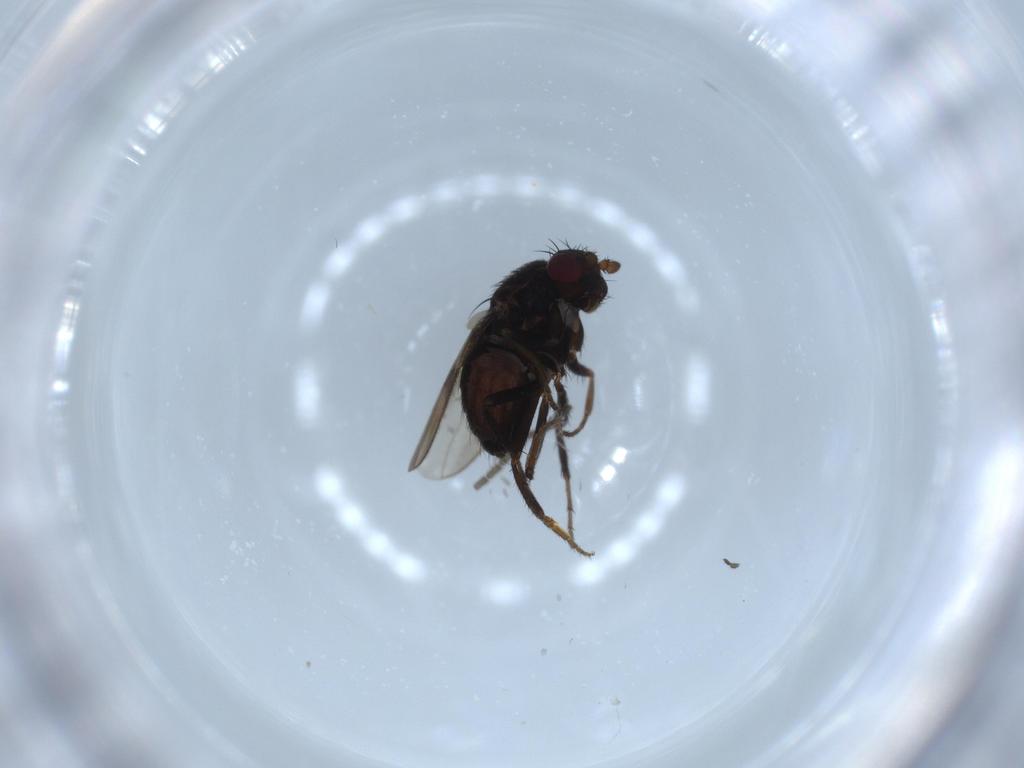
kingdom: Animalia
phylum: Arthropoda
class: Insecta
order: Diptera
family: Sciaridae
